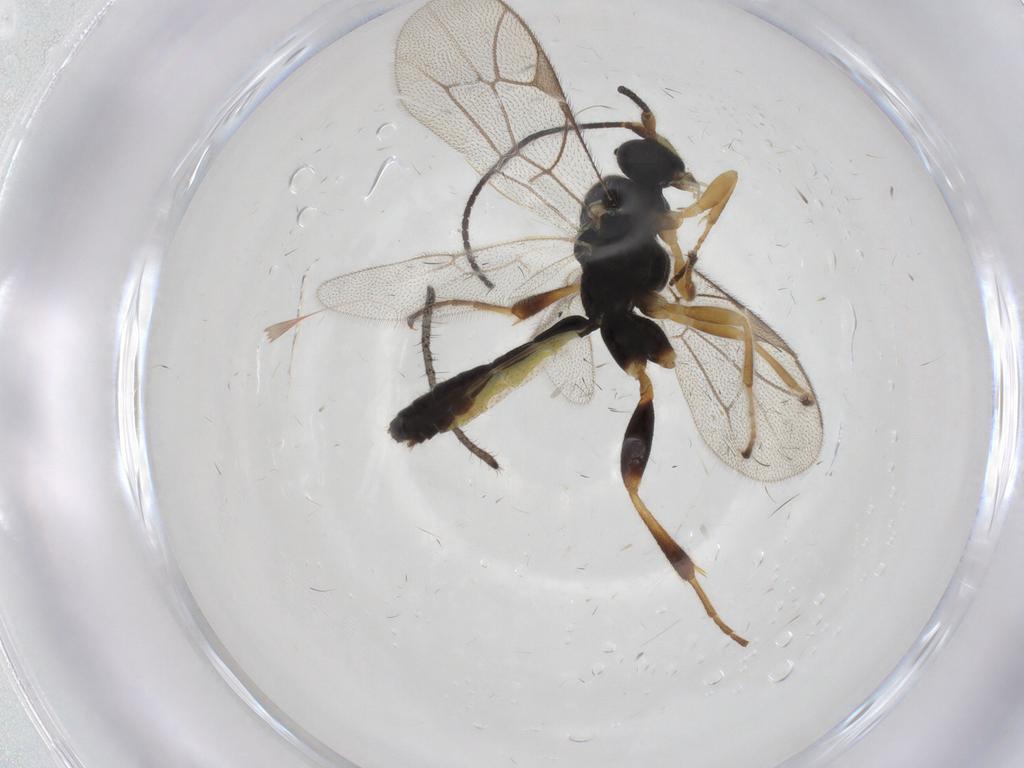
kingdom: Animalia
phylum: Arthropoda
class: Insecta
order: Hymenoptera
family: Ichneumonidae
